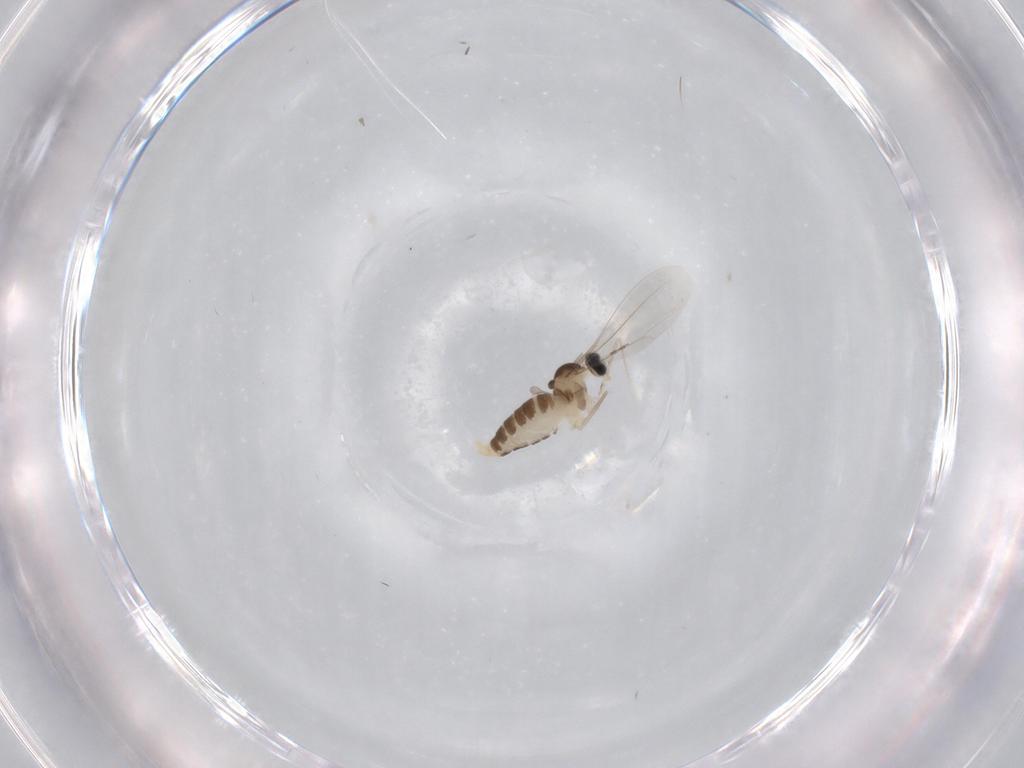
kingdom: Animalia
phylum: Arthropoda
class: Insecta
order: Diptera
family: Cecidomyiidae
